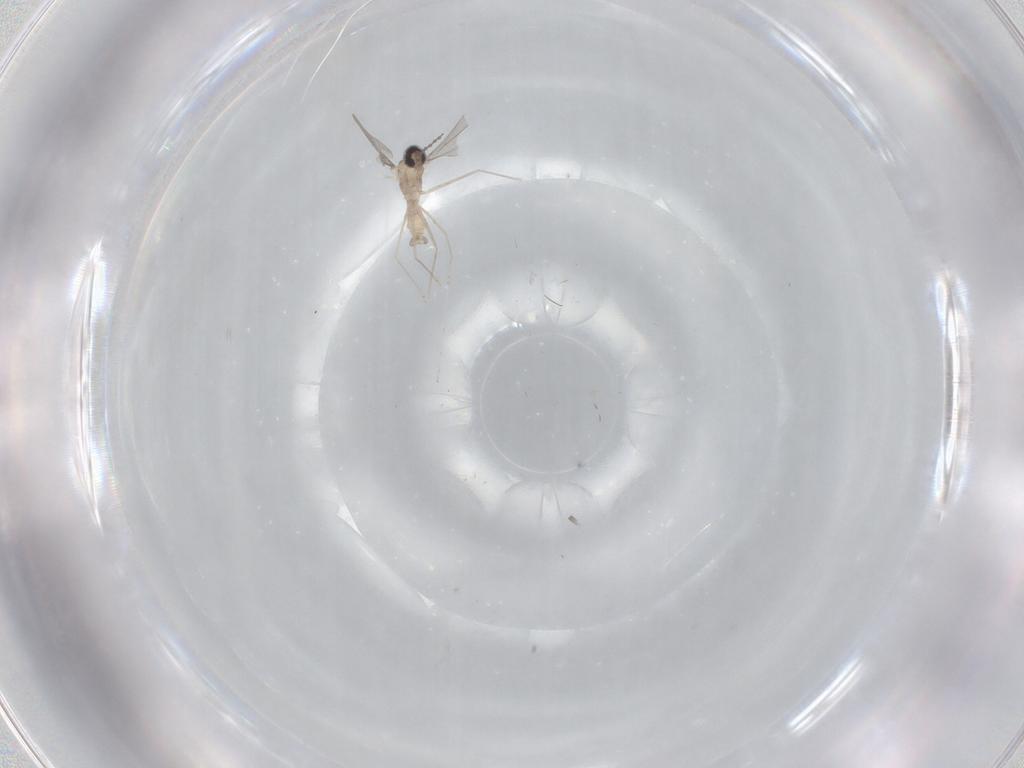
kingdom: Animalia
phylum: Arthropoda
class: Insecta
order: Diptera
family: Cecidomyiidae
